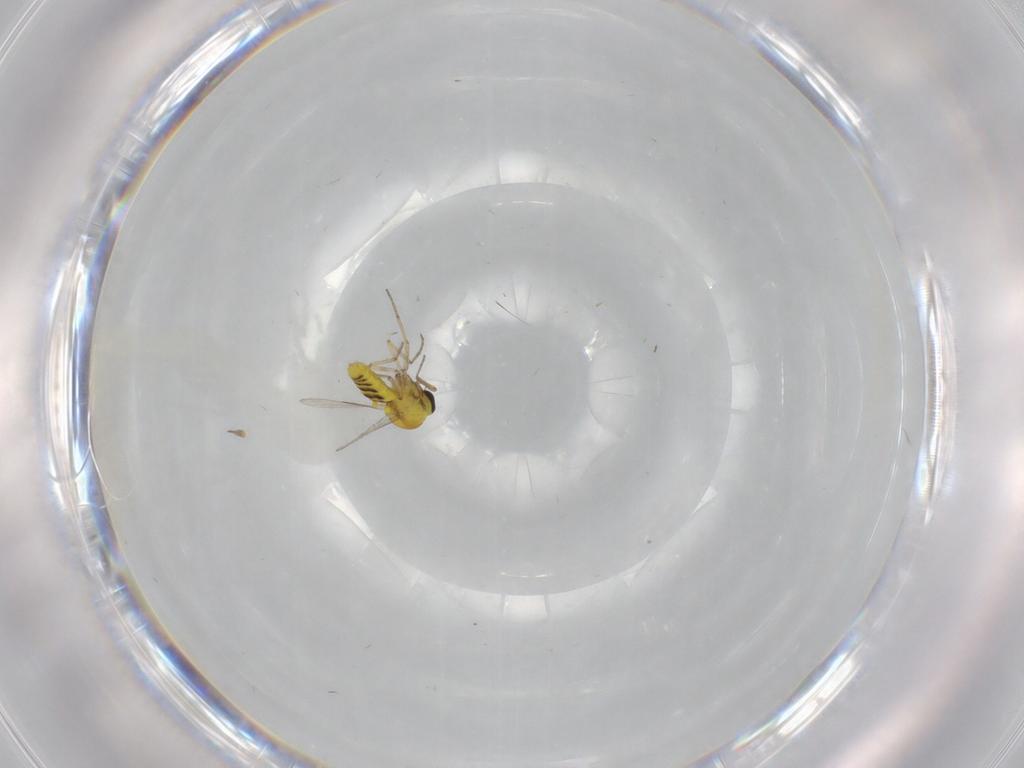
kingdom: Animalia
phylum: Arthropoda
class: Insecta
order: Diptera
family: Ceratopogonidae
